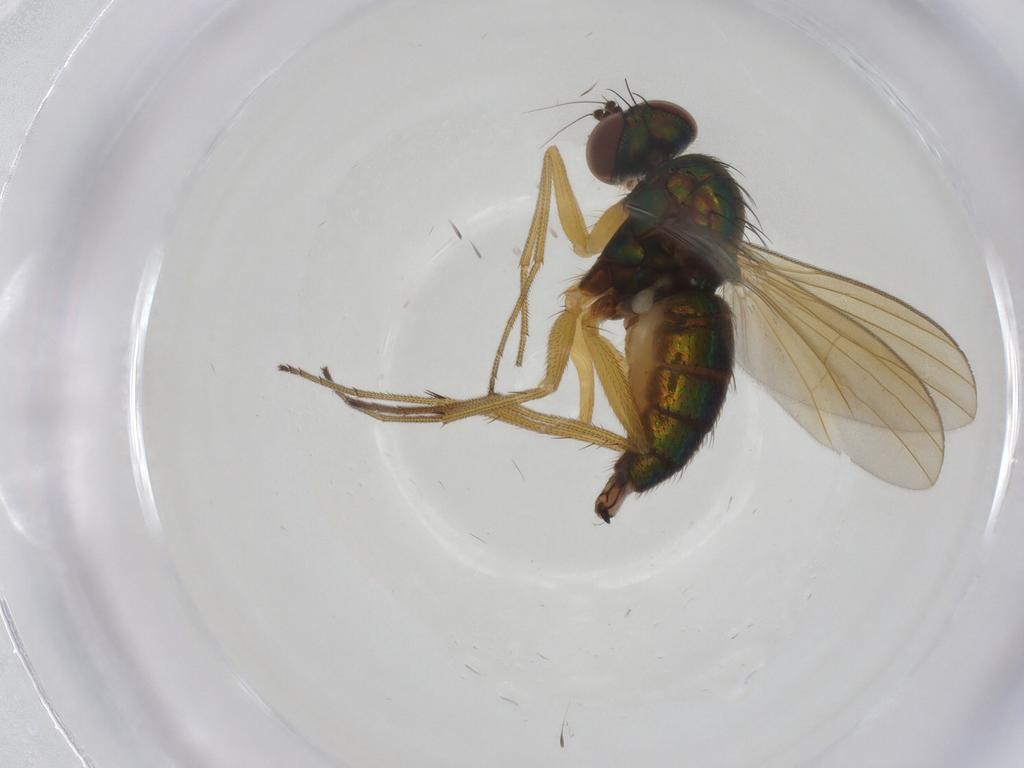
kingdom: Animalia
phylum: Arthropoda
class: Insecta
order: Diptera
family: Dolichopodidae
